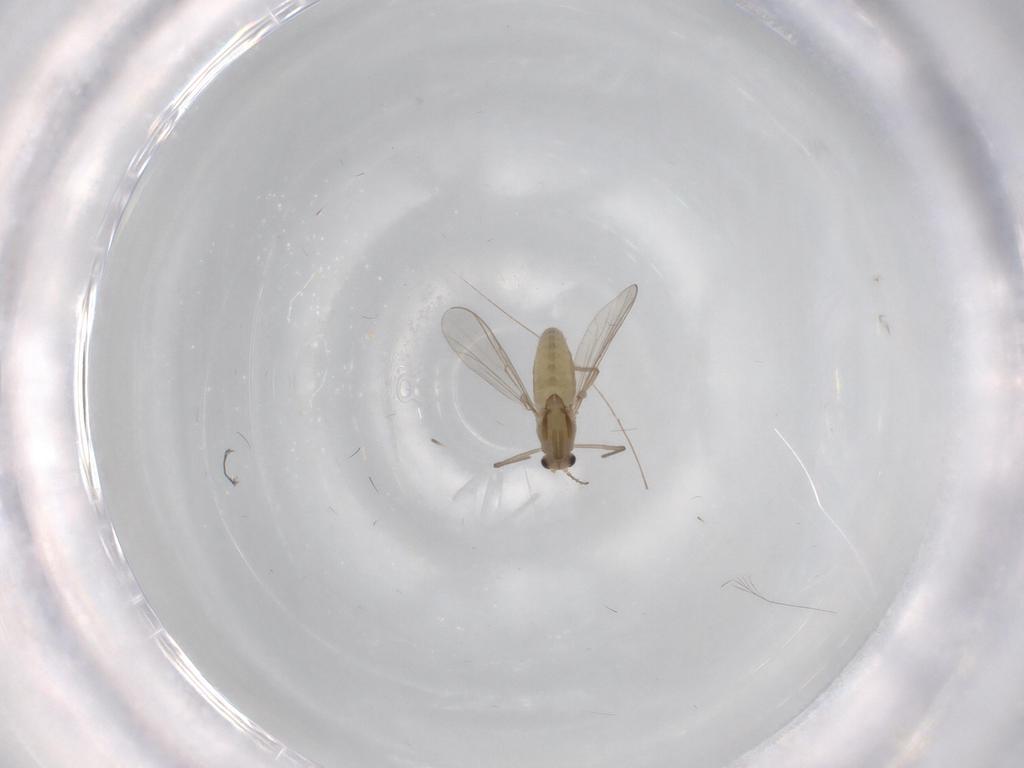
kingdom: Animalia
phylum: Arthropoda
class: Insecta
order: Diptera
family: Chironomidae
